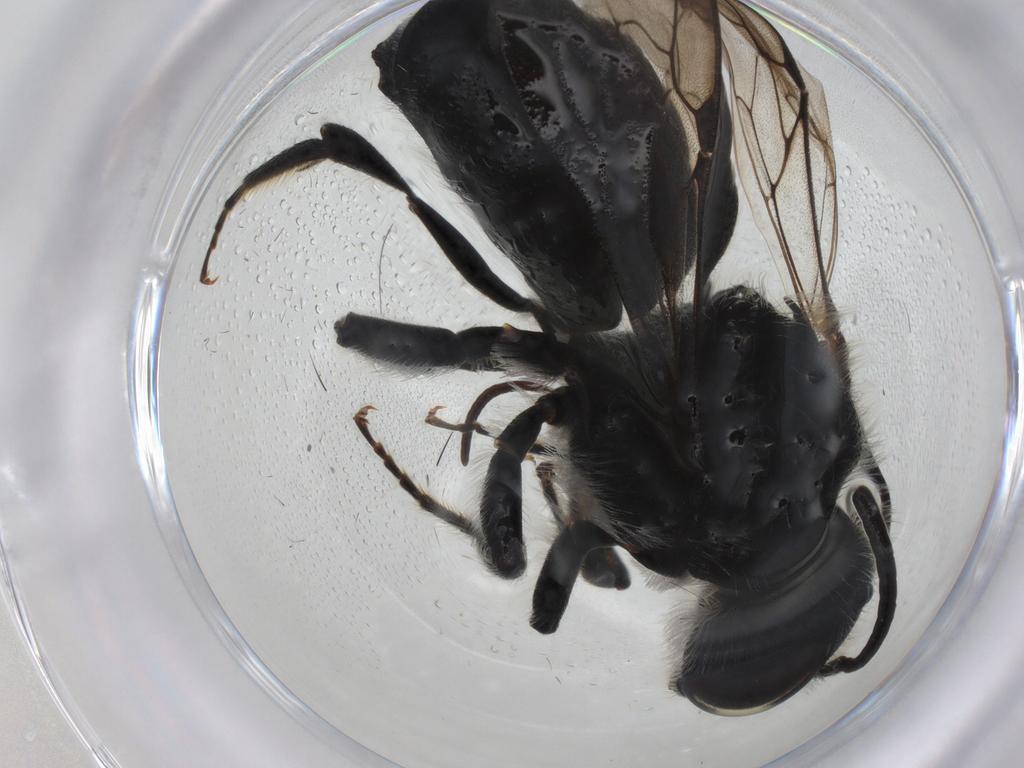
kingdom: Animalia
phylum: Arthropoda
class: Insecta
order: Hymenoptera
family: Megachilidae
